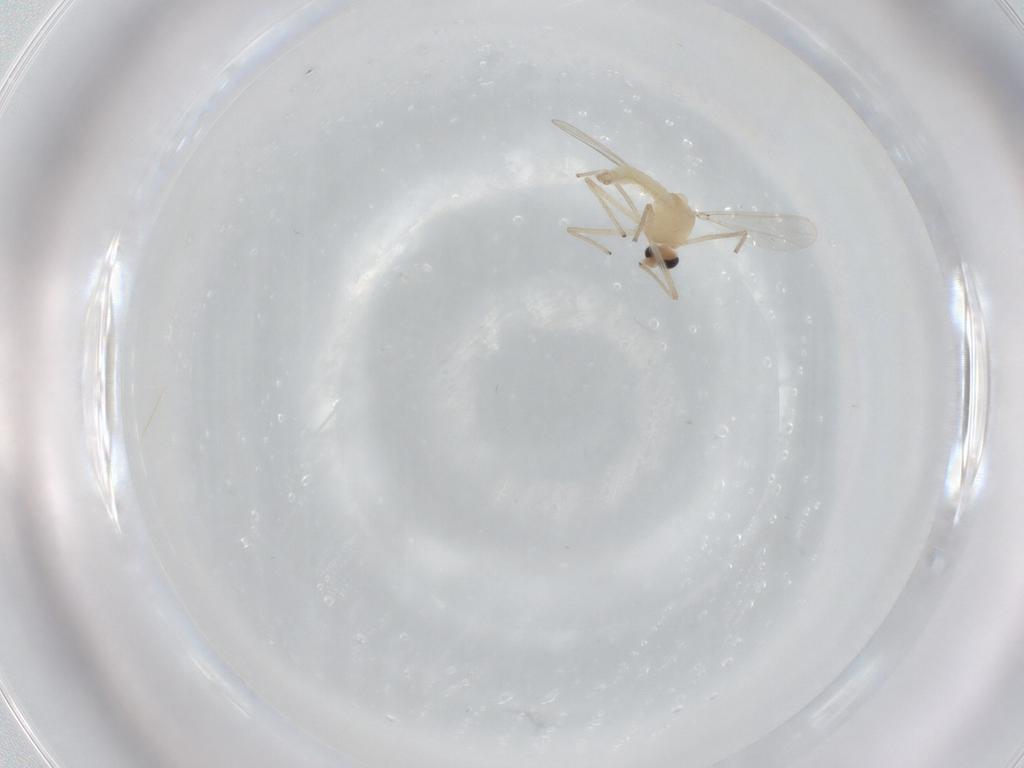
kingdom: Animalia
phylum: Arthropoda
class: Insecta
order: Diptera
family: Chironomidae
